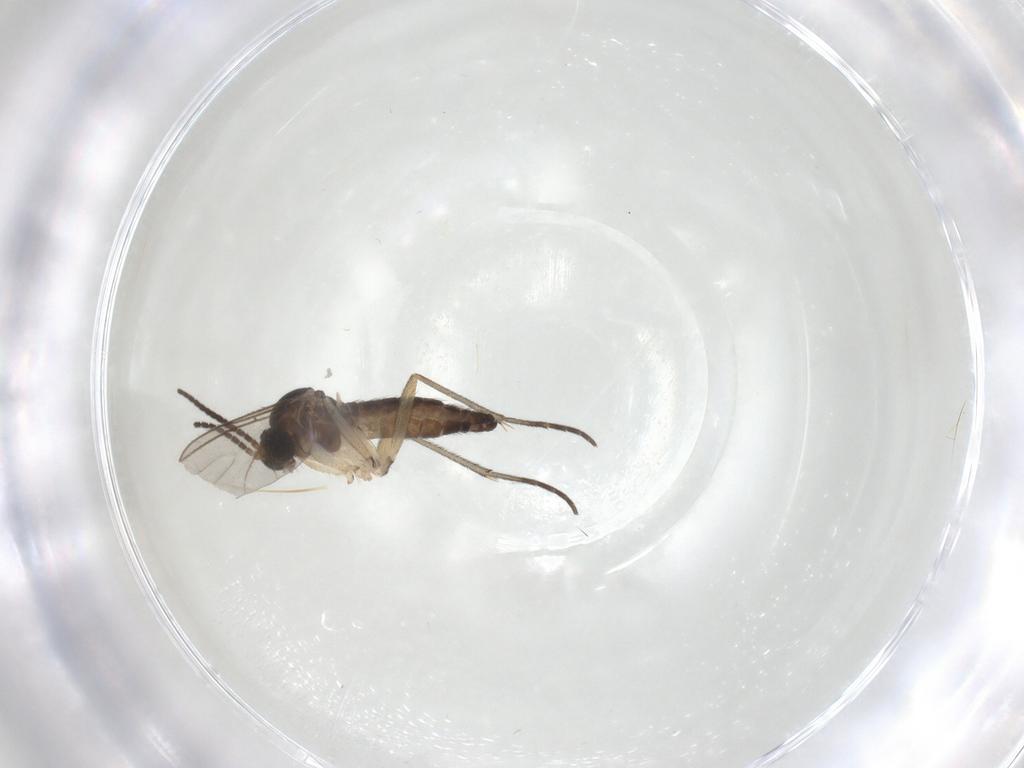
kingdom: Animalia
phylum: Arthropoda
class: Insecta
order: Diptera
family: Sciaridae
